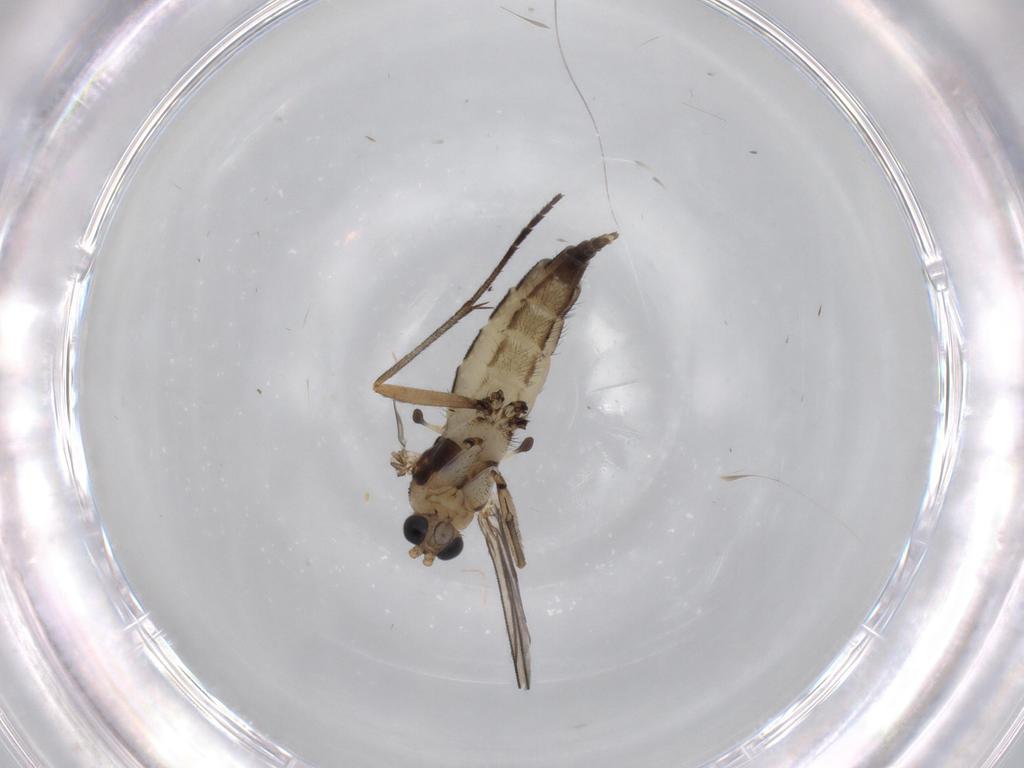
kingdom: Animalia
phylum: Arthropoda
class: Insecta
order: Diptera
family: Sciaridae
